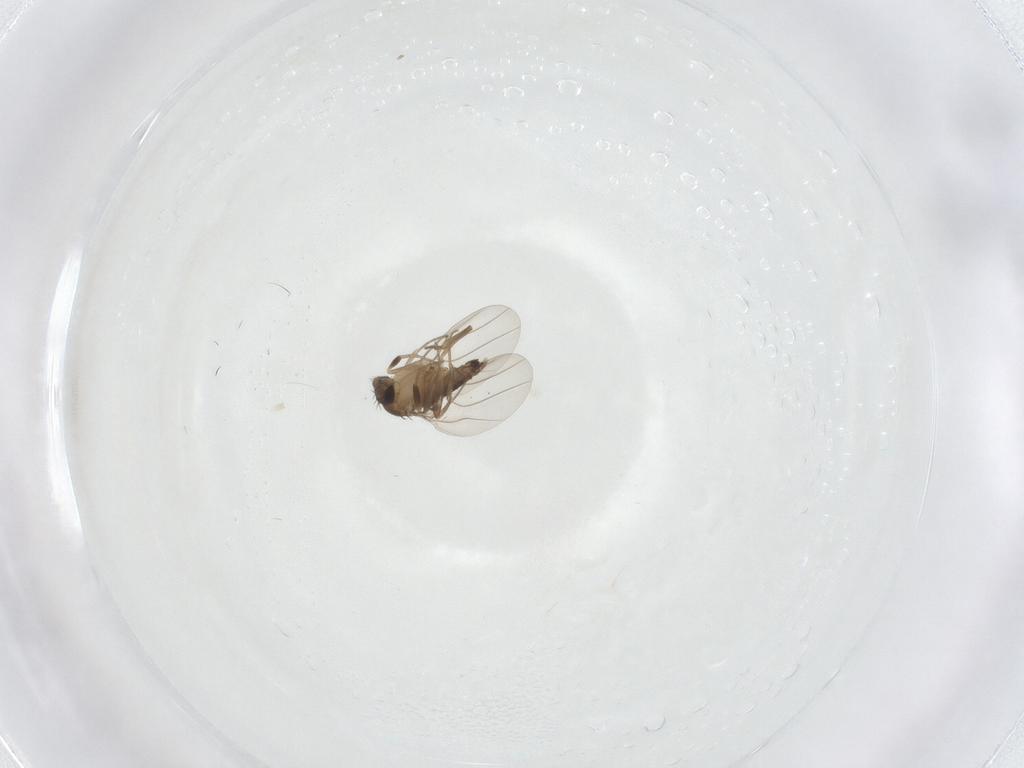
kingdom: Animalia
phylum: Arthropoda
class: Insecta
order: Diptera
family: Phoridae
